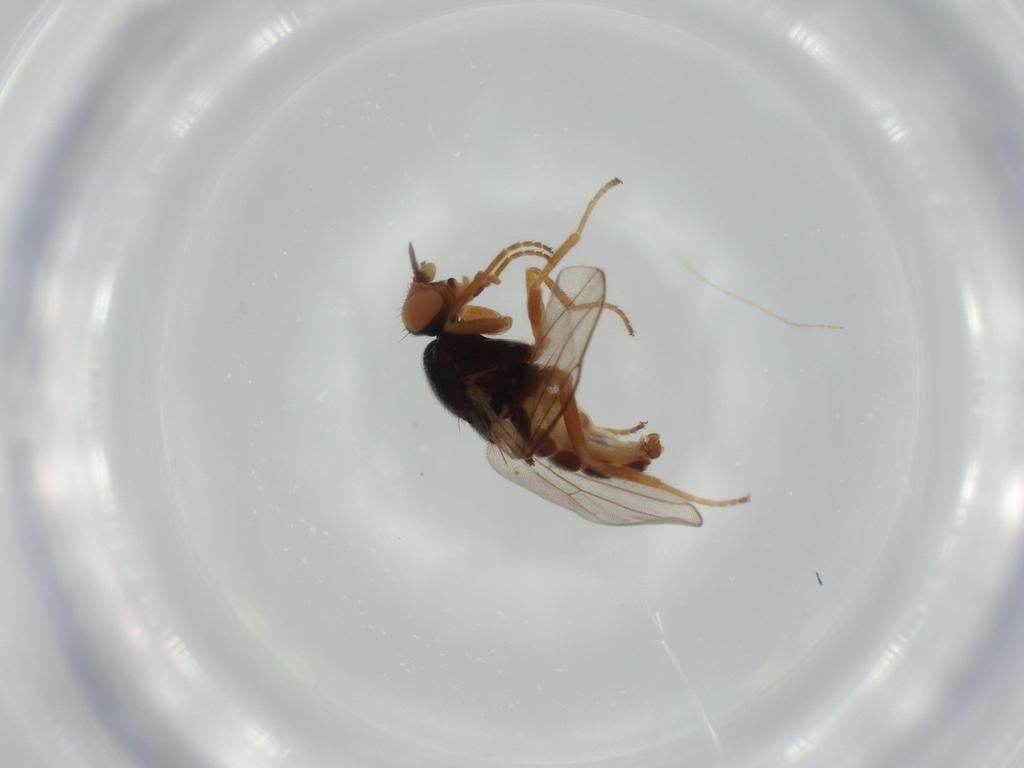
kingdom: Animalia
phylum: Arthropoda
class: Insecta
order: Diptera
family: Chloropidae
